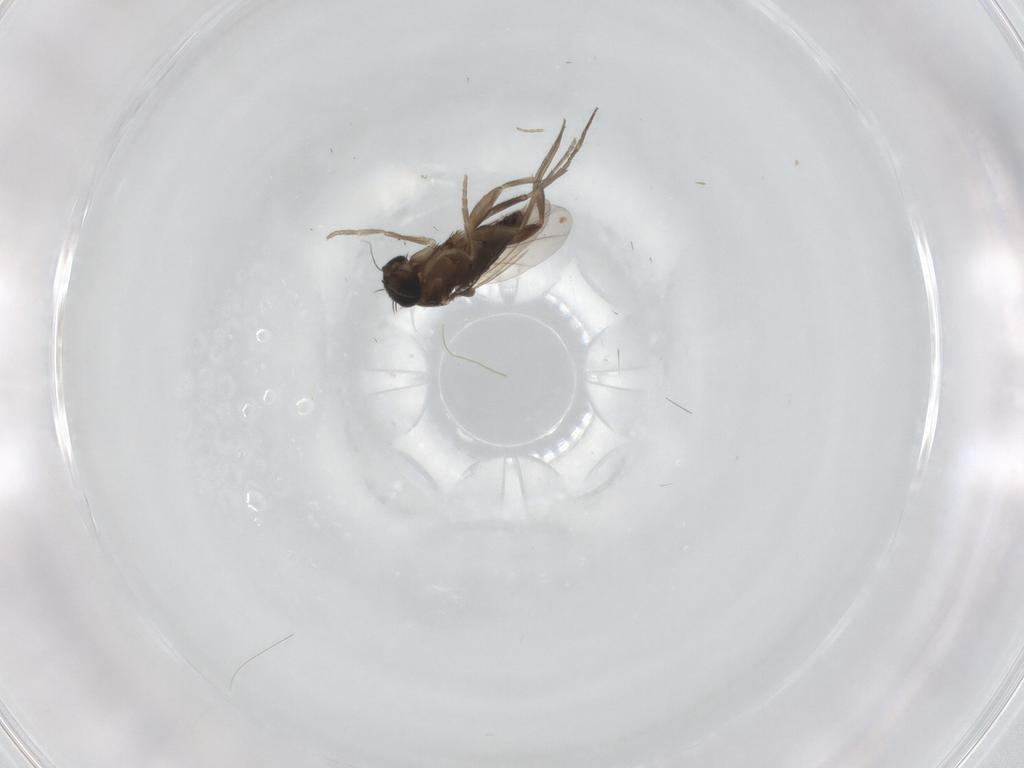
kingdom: Animalia
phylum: Arthropoda
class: Insecta
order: Diptera
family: Phoridae
